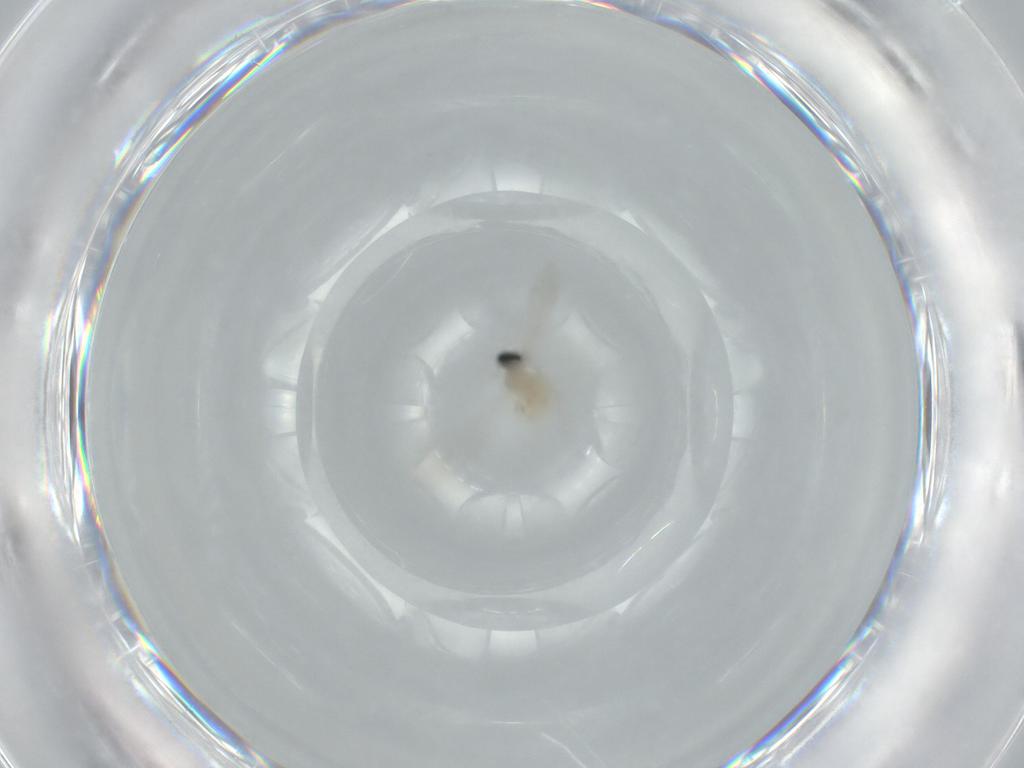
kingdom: Animalia
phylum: Arthropoda
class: Insecta
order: Diptera
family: Cecidomyiidae
